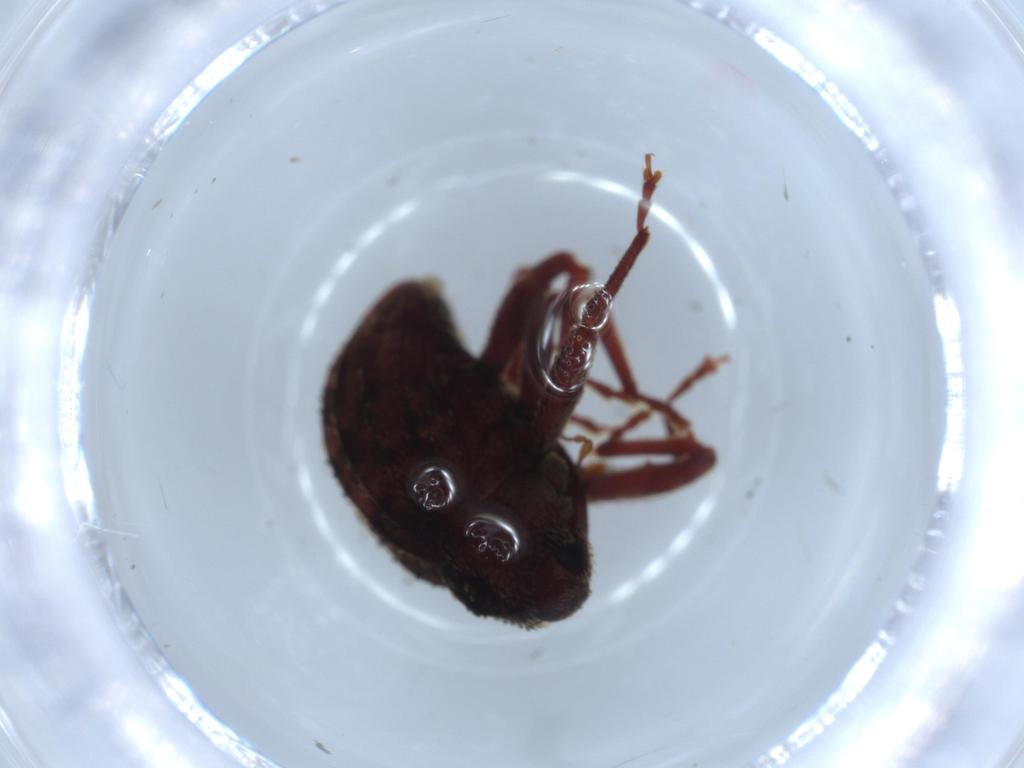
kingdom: Animalia
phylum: Arthropoda
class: Insecta
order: Coleoptera
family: Curculionidae
